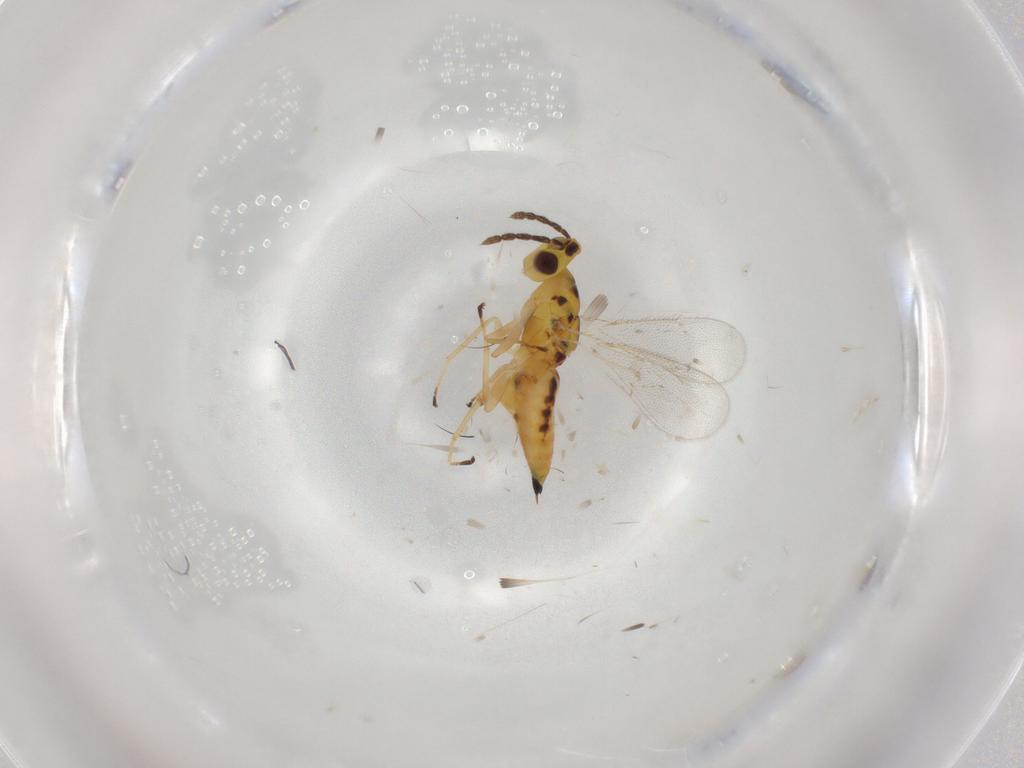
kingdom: Animalia
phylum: Arthropoda
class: Insecta
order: Hymenoptera
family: Eulophidae
